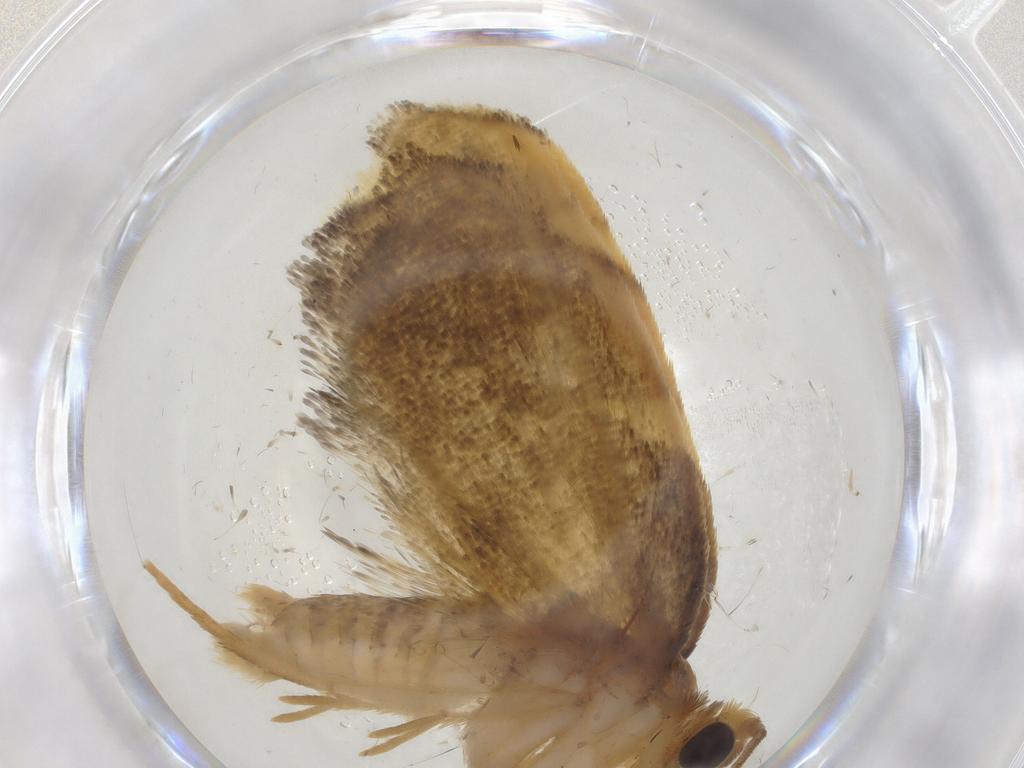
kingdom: Animalia
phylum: Arthropoda
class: Insecta
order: Lepidoptera
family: Psychidae
